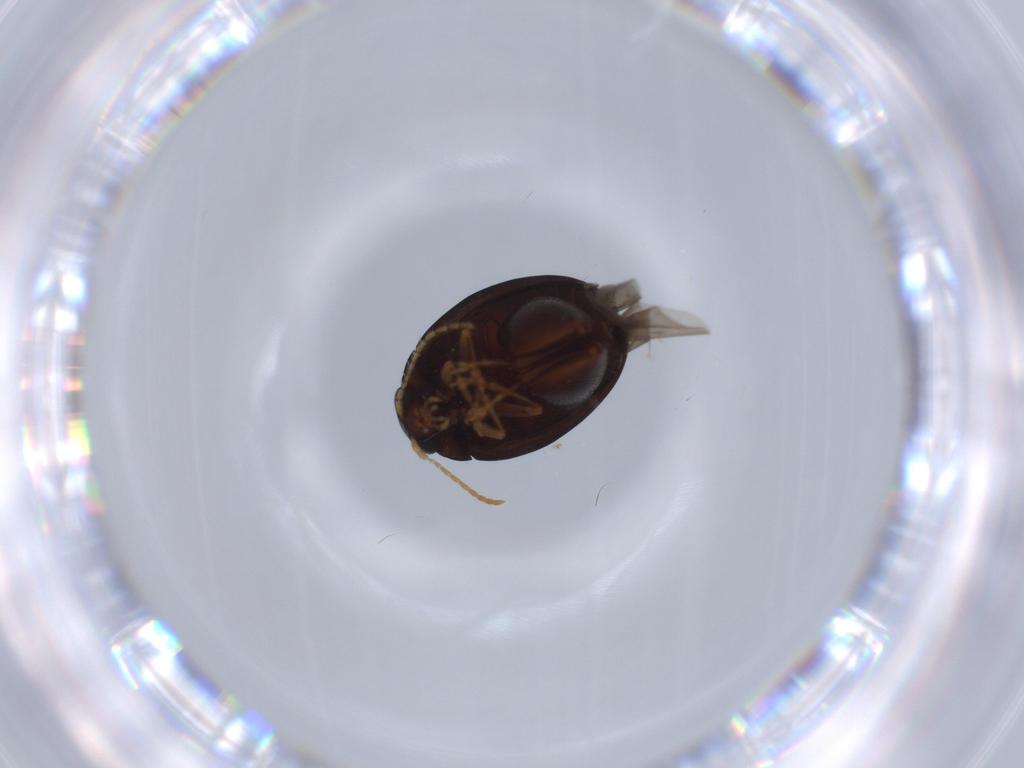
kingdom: Animalia
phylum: Arthropoda
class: Insecta
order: Coleoptera
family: Chrysomelidae
